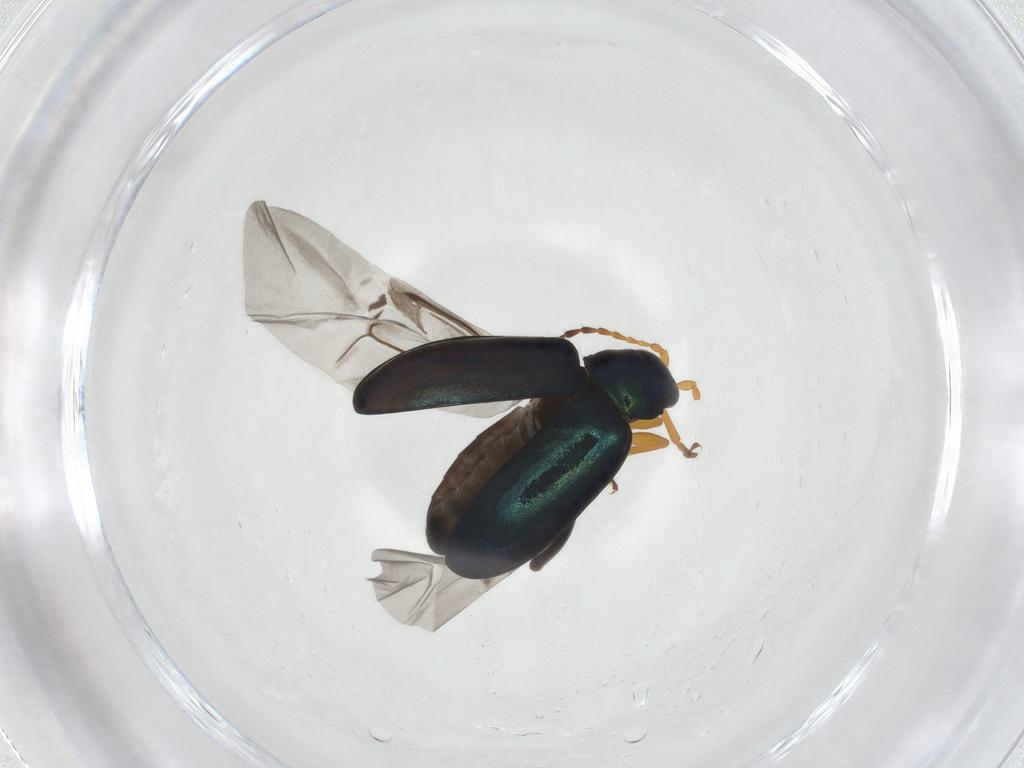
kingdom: Animalia
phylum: Arthropoda
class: Insecta
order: Coleoptera
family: Chrysomelidae
